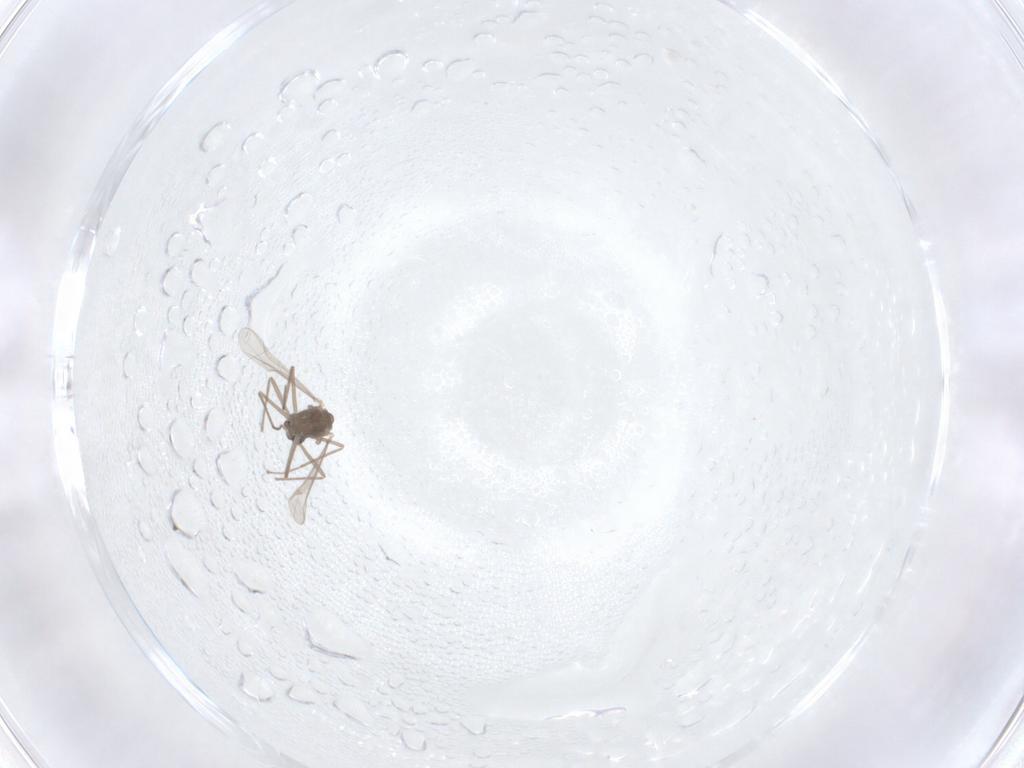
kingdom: Animalia
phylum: Arthropoda
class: Insecta
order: Diptera
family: Chironomidae
